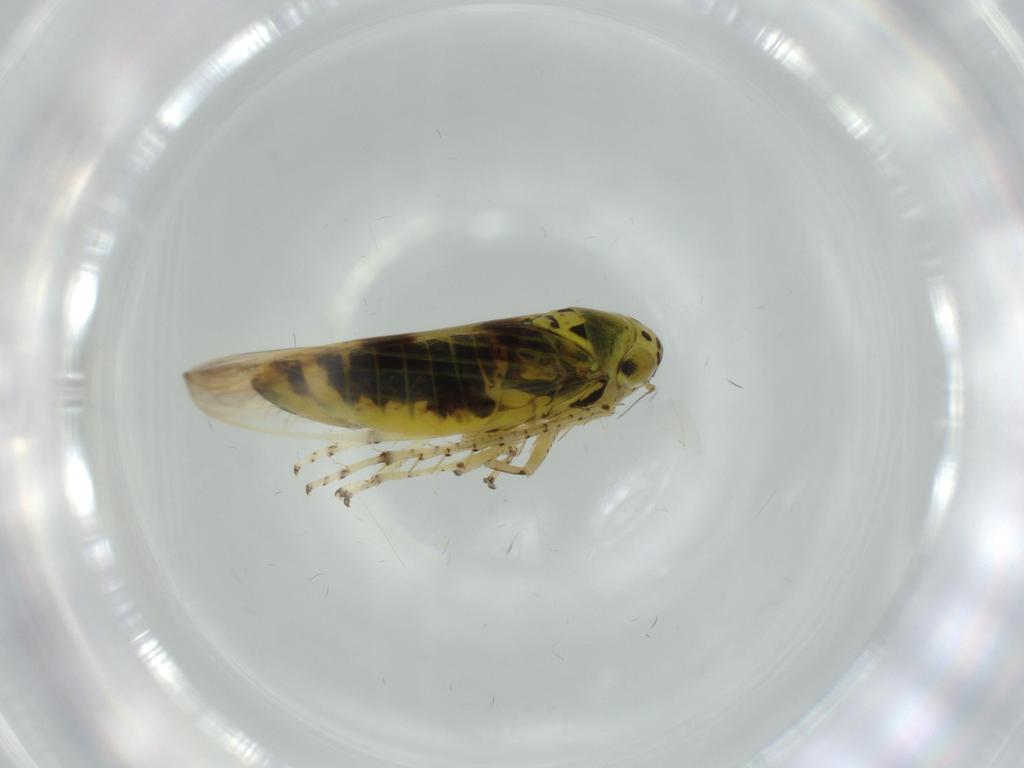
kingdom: Animalia
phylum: Arthropoda
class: Insecta
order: Hemiptera
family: Cicadellidae
